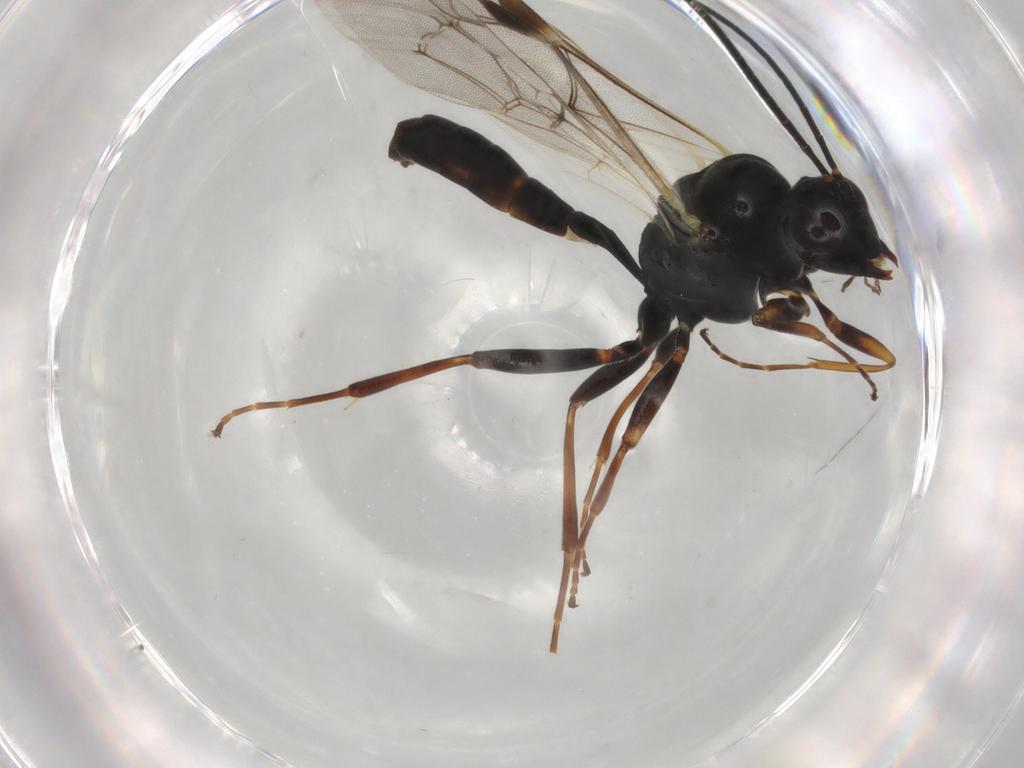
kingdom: Animalia
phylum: Arthropoda
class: Insecta
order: Hymenoptera
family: Ichneumonidae
